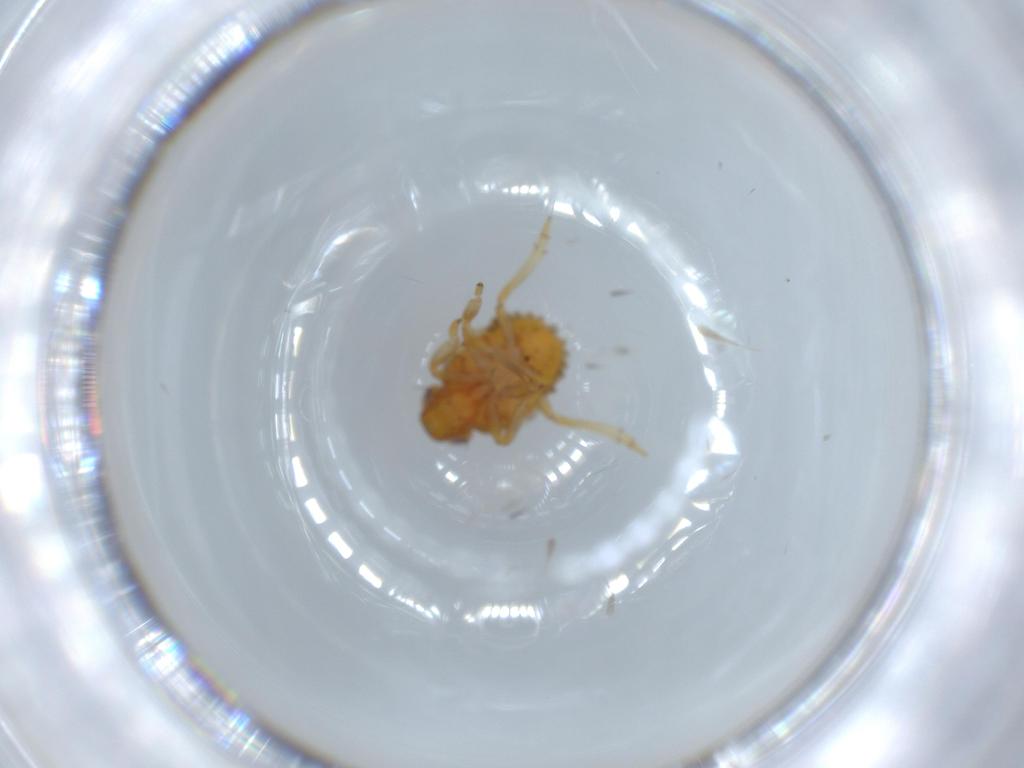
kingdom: Animalia
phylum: Arthropoda
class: Insecta
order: Hemiptera
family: Issidae
